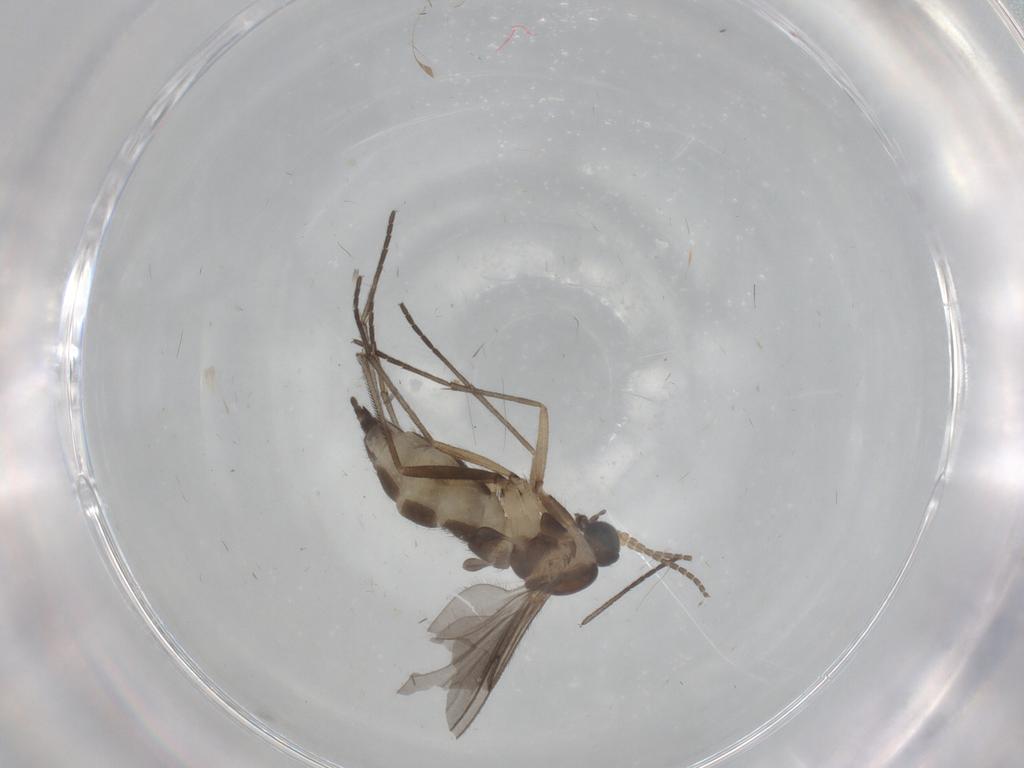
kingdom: Animalia
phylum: Arthropoda
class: Insecta
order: Diptera
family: Sciaridae
